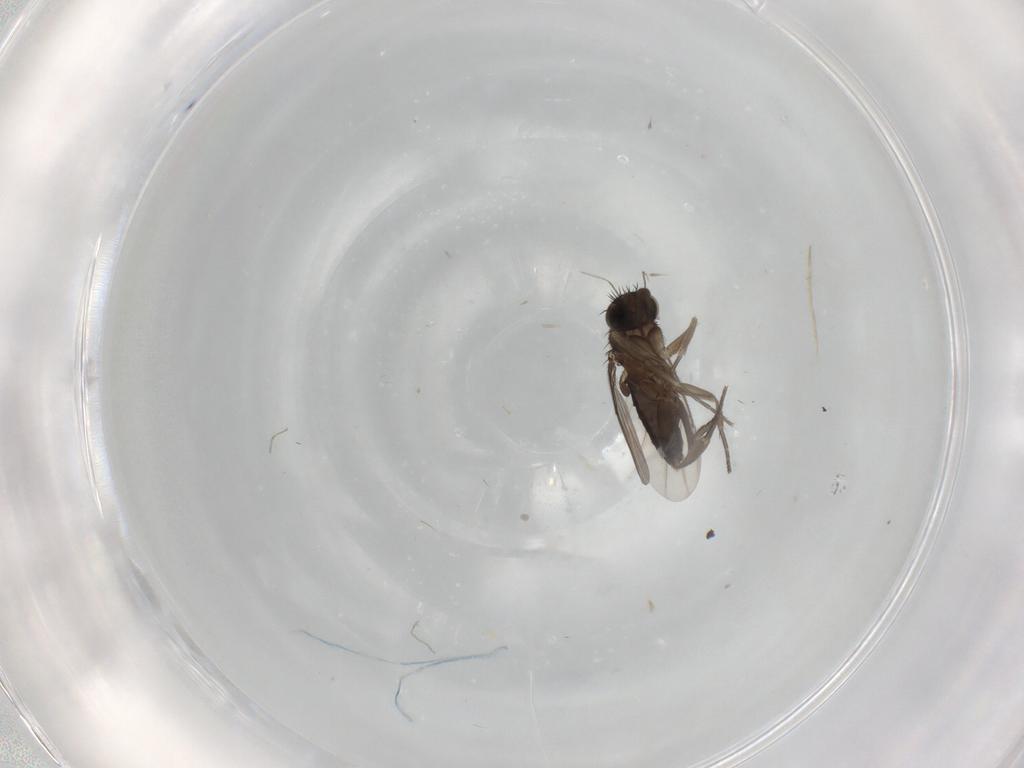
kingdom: Animalia
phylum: Arthropoda
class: Insecta
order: Diptera
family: Phoridae
